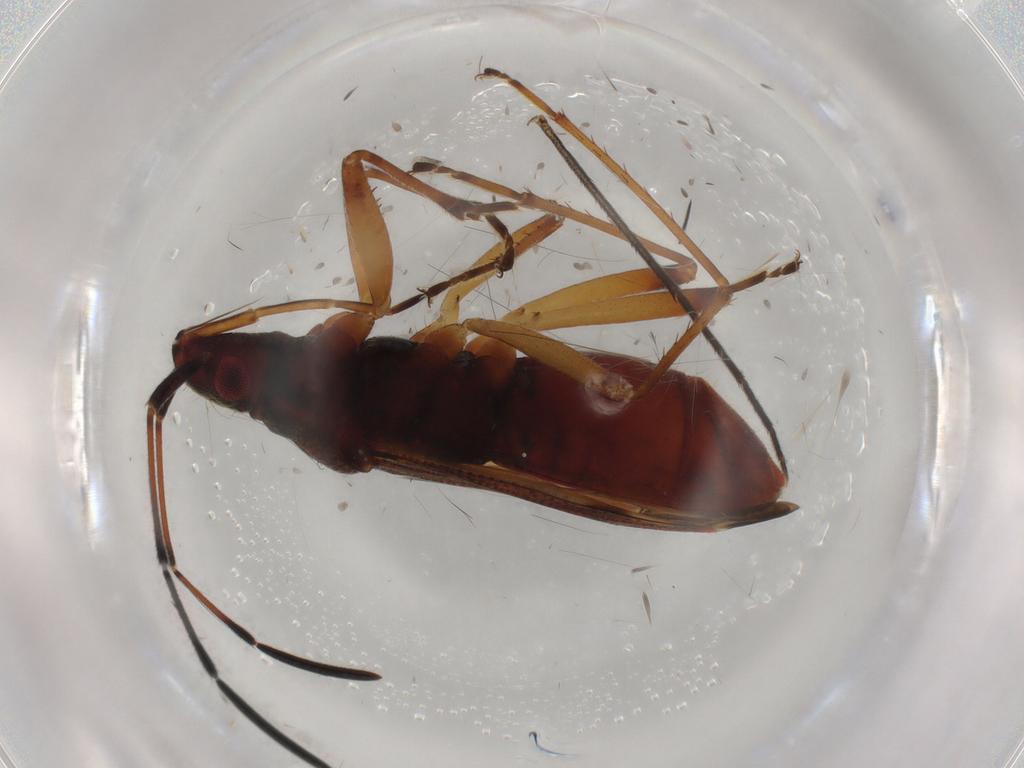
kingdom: Animalia
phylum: Arthropoda
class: Insecta
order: Hemiptera
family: Rhyparochromidae
